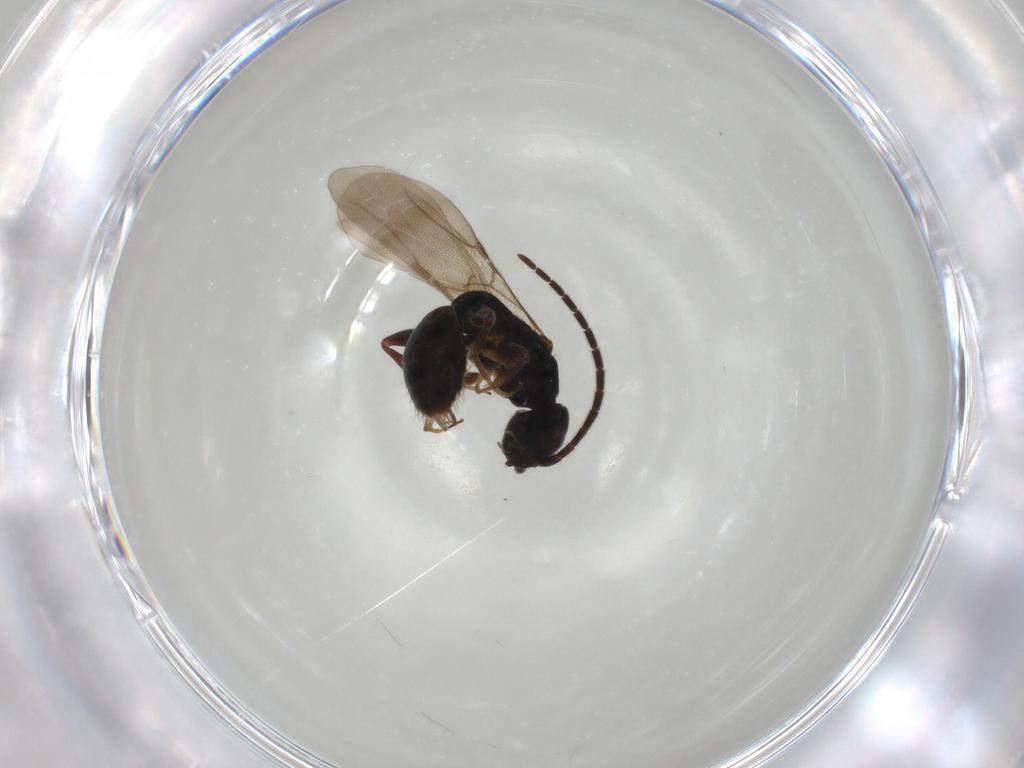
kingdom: Animalia
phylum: Arthropoda
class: Insecta
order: Hymenoptera
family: Bethylidae
